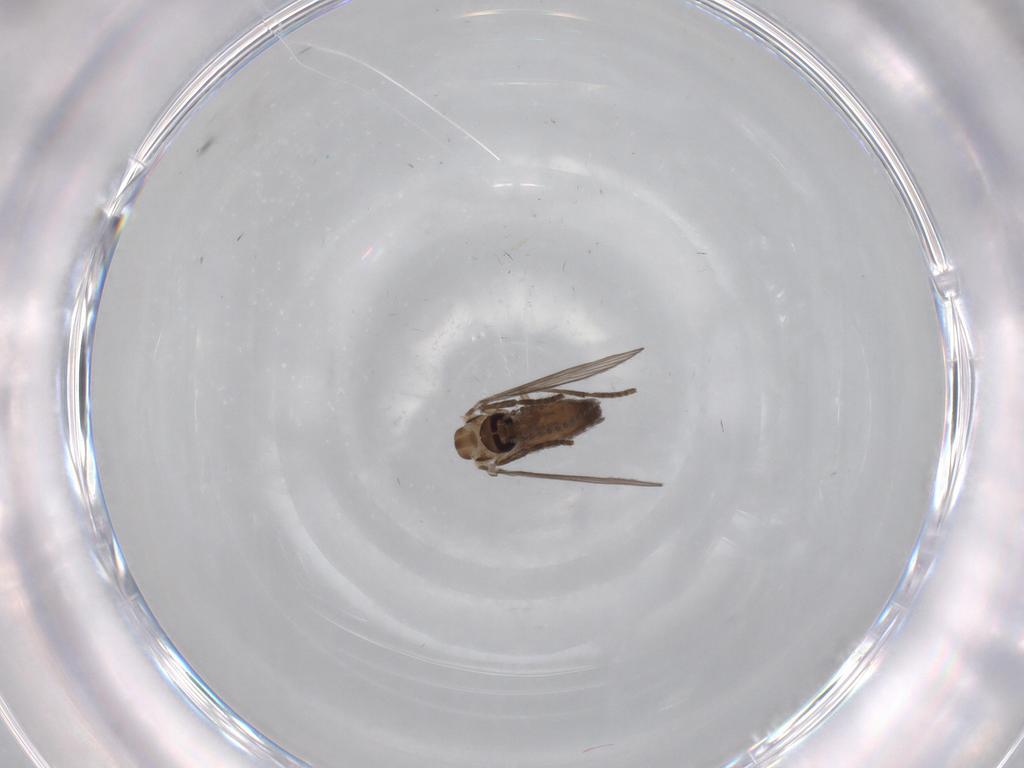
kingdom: Animalia
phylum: Arthropoda
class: Insecta
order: Diptera
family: Psychodidae
